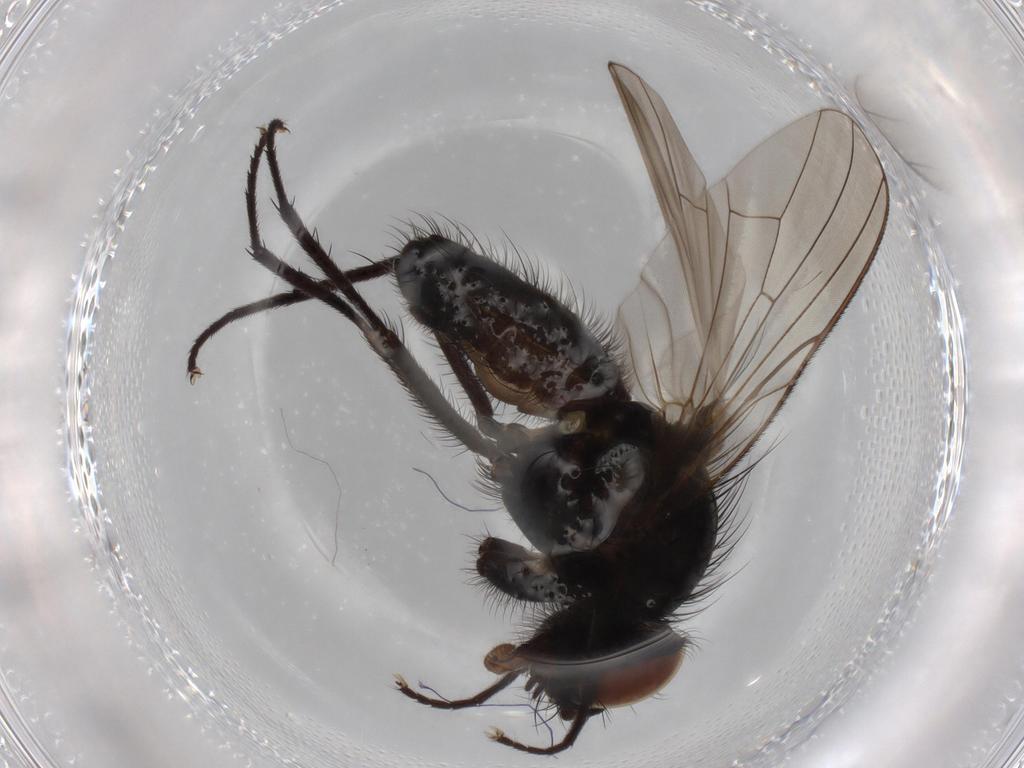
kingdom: Animalia
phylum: Arthropoda
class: Insecta
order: Diptera
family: Anthomyiidae
